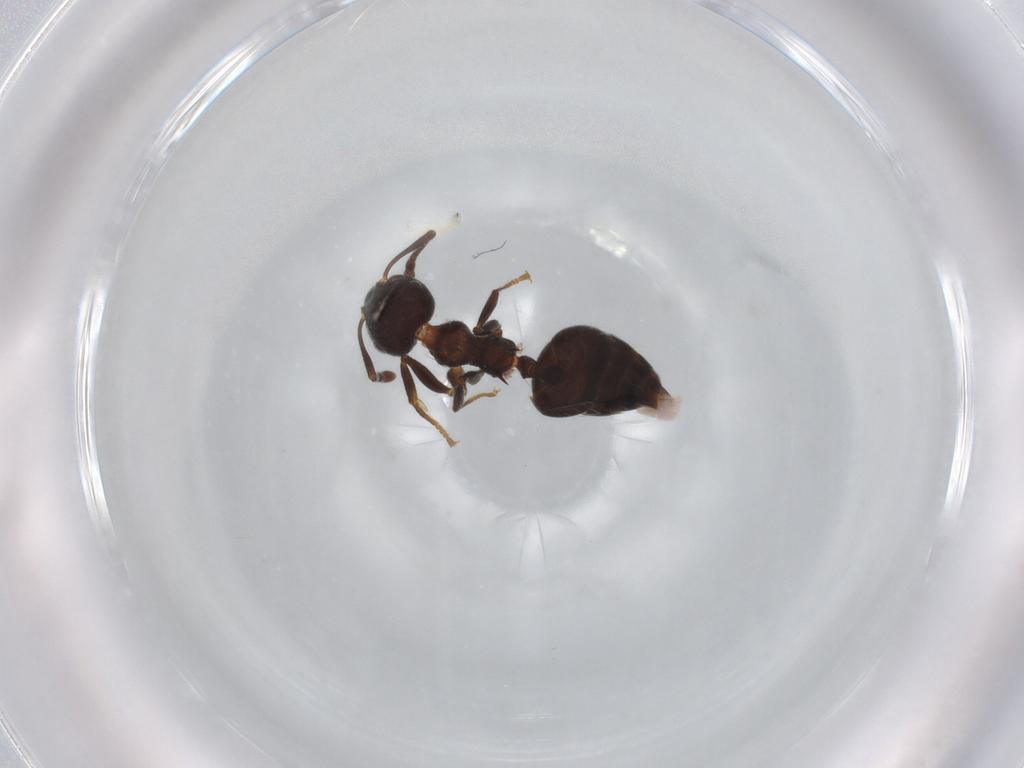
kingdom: Animalia
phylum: Arthropoda
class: Insecta
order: Hymenoptera
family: Formicidae
